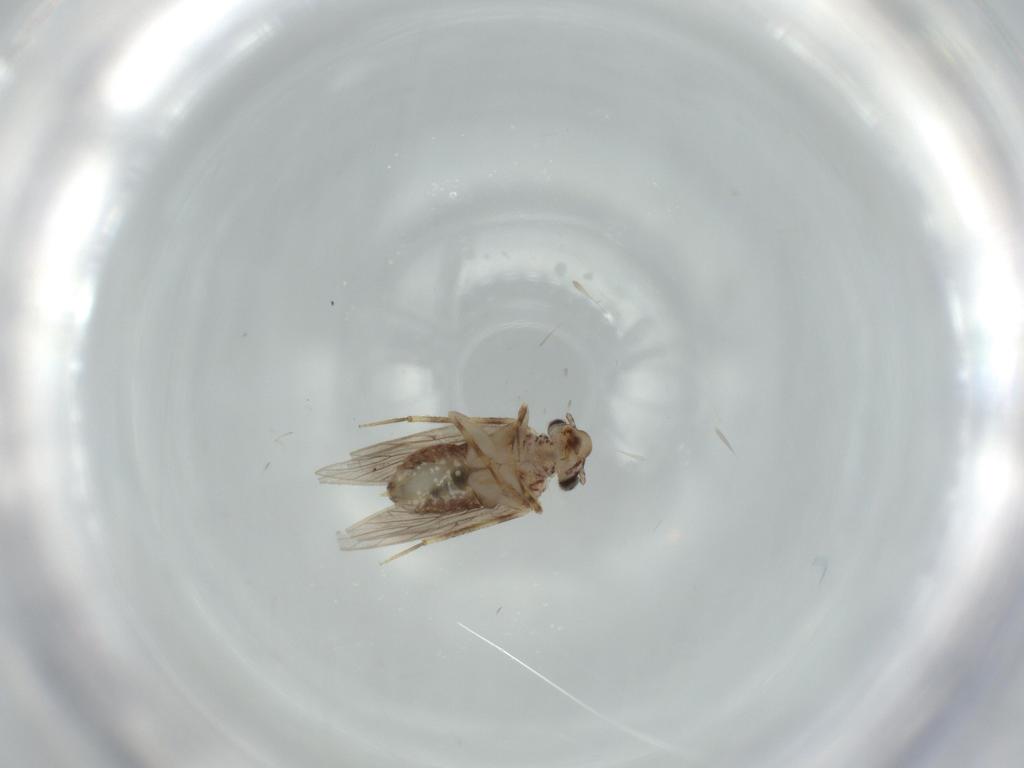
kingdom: Animalia
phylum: Arthropoda
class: Insecta
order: Psocodea
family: Lepidopsocidae
